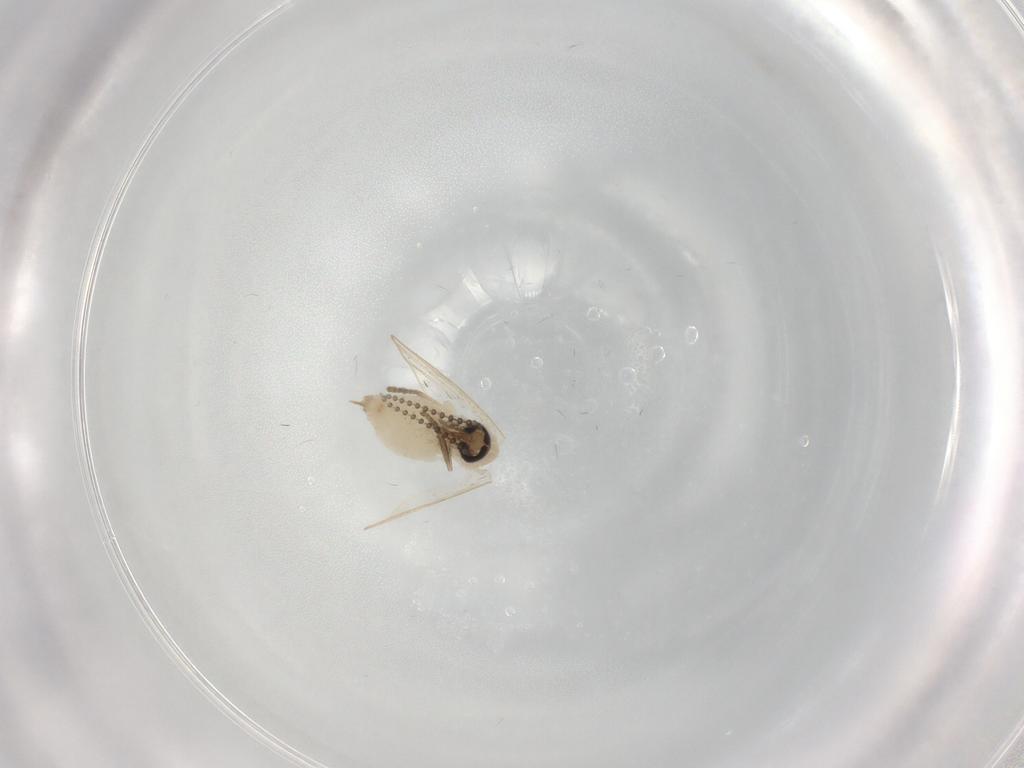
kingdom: Animalia
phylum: Arthropoda
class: Insecta
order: Diptera
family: Psychodidae
